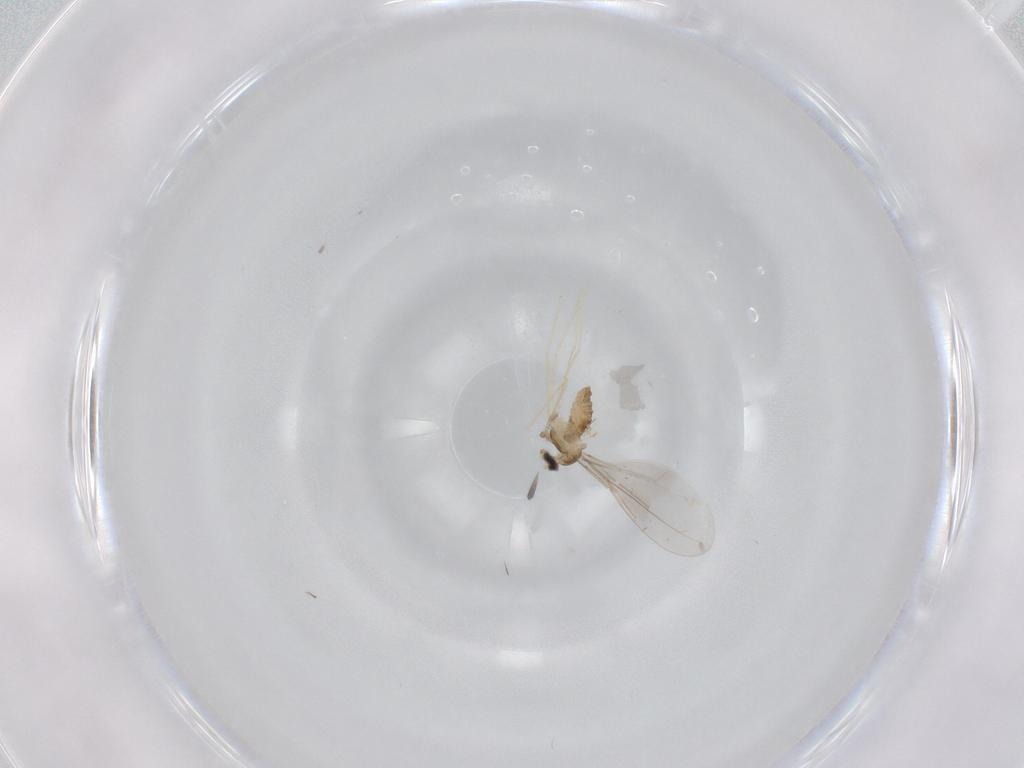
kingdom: Animalia
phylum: Arthropoda
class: Insecta
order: Diptera
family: Cecidomyiidae
